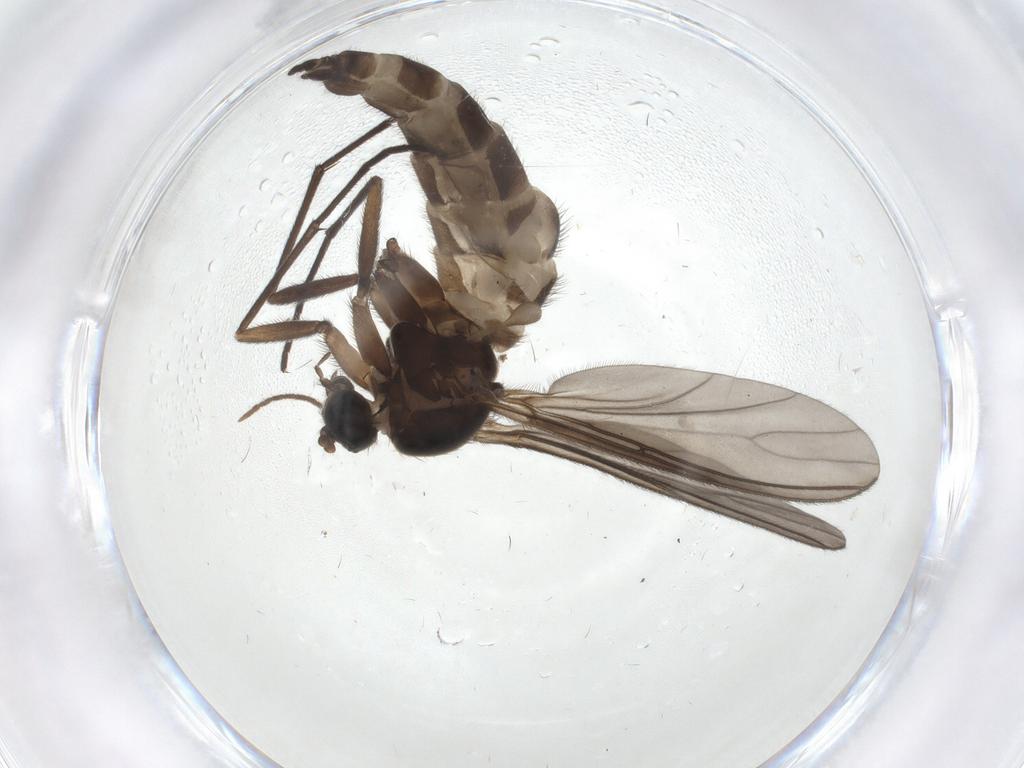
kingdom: Animalia
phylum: Arthropoda
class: Insecta
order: Diptera
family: Sciaridae
